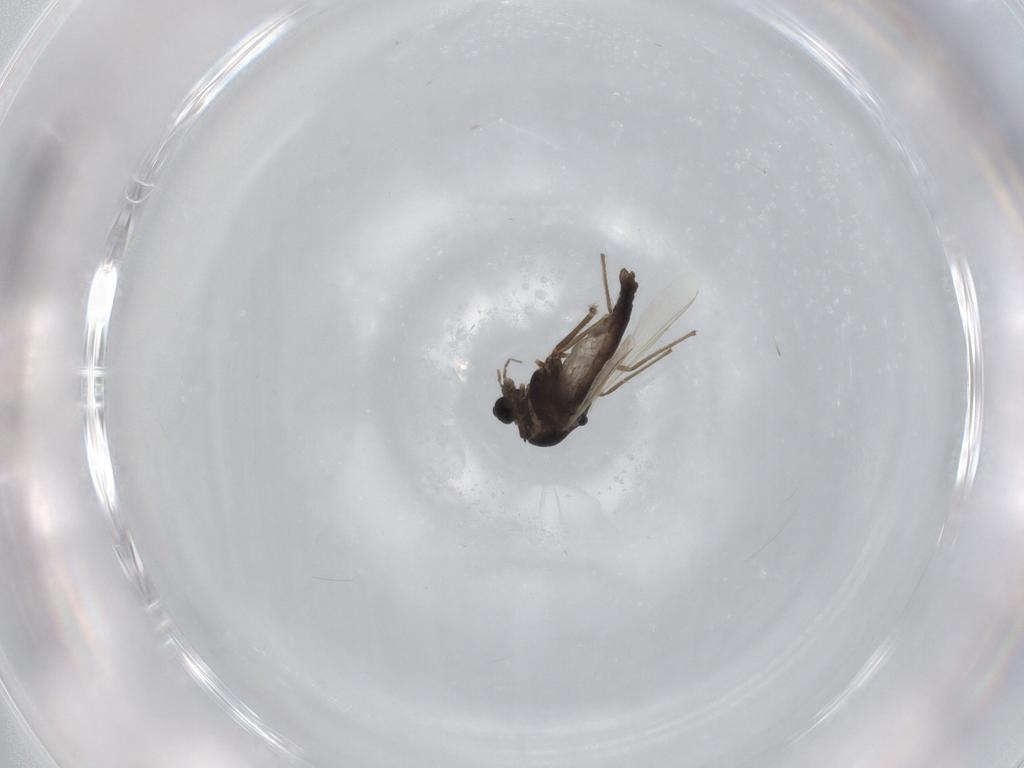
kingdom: Animalia
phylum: Arthropoda
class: Insecta
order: Diptera
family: Chironomidae
